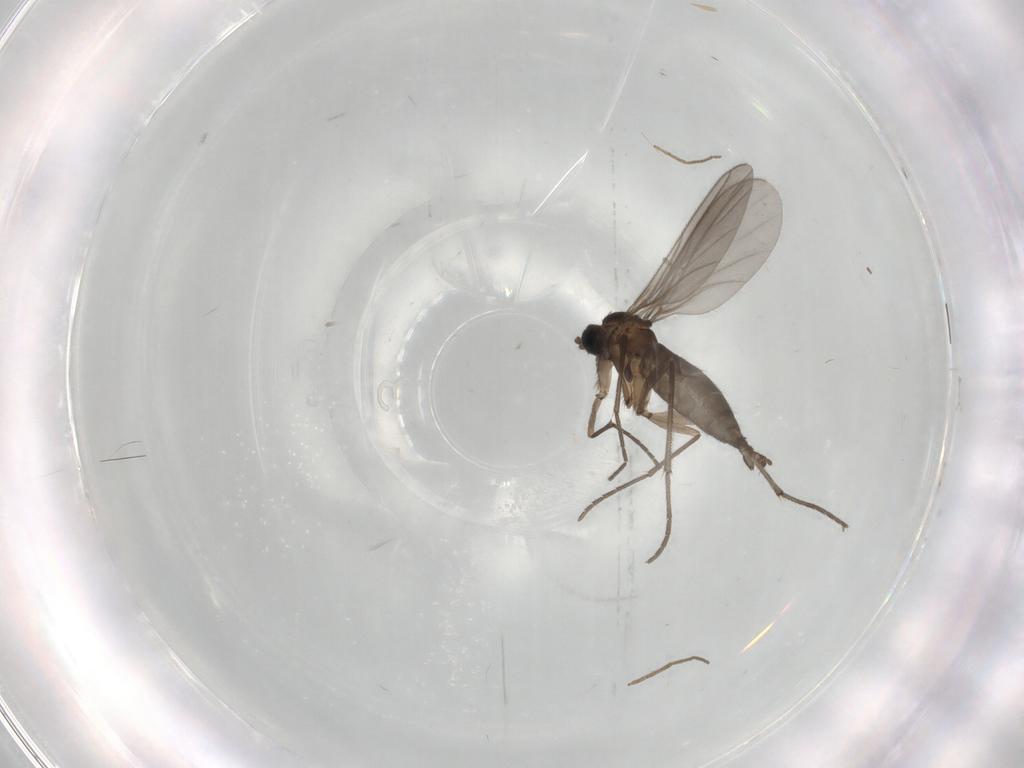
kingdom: Animalia
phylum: Arthropoda
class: Insecta
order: Diptera
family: Sciaridae
